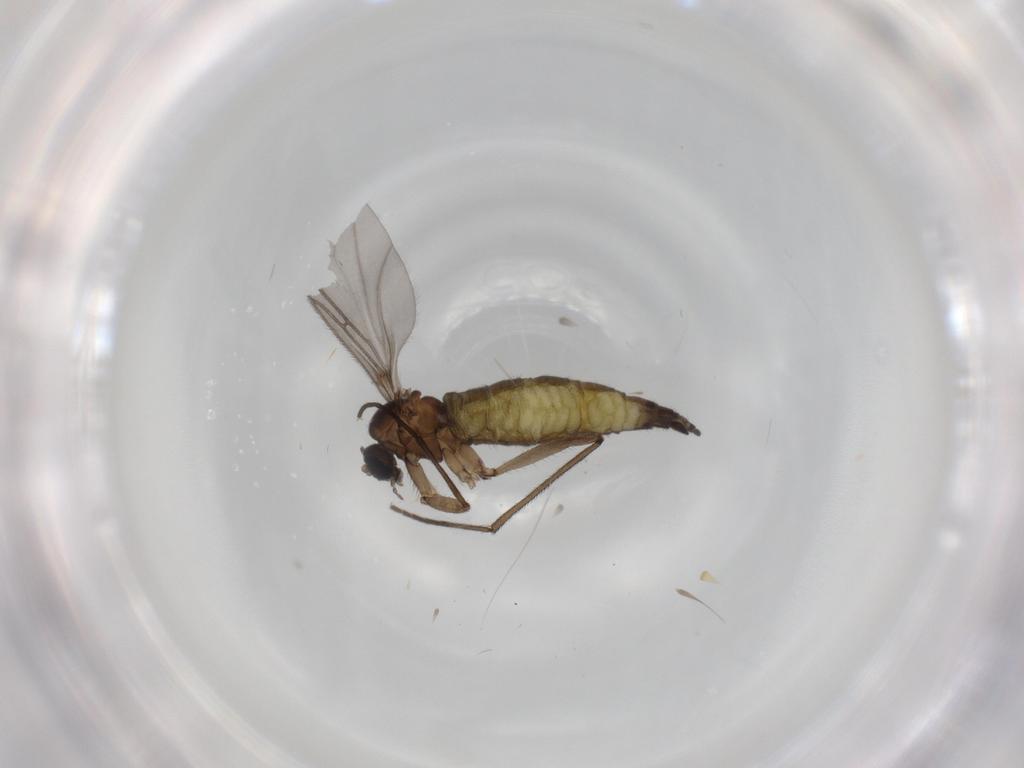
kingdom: Animalia
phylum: Arthropoda
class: Insecta
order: Diptera
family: Sciaridae
